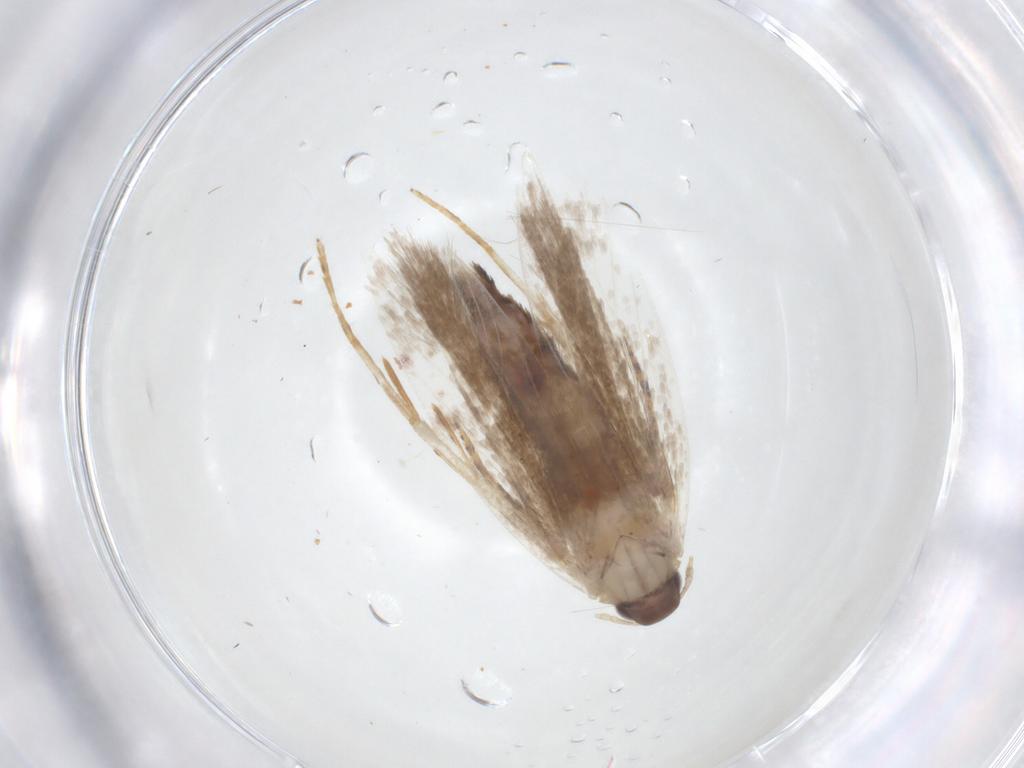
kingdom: Animalia
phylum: Arthropoda
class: Insecta
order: Lepidoptera
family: Gelechiidae
